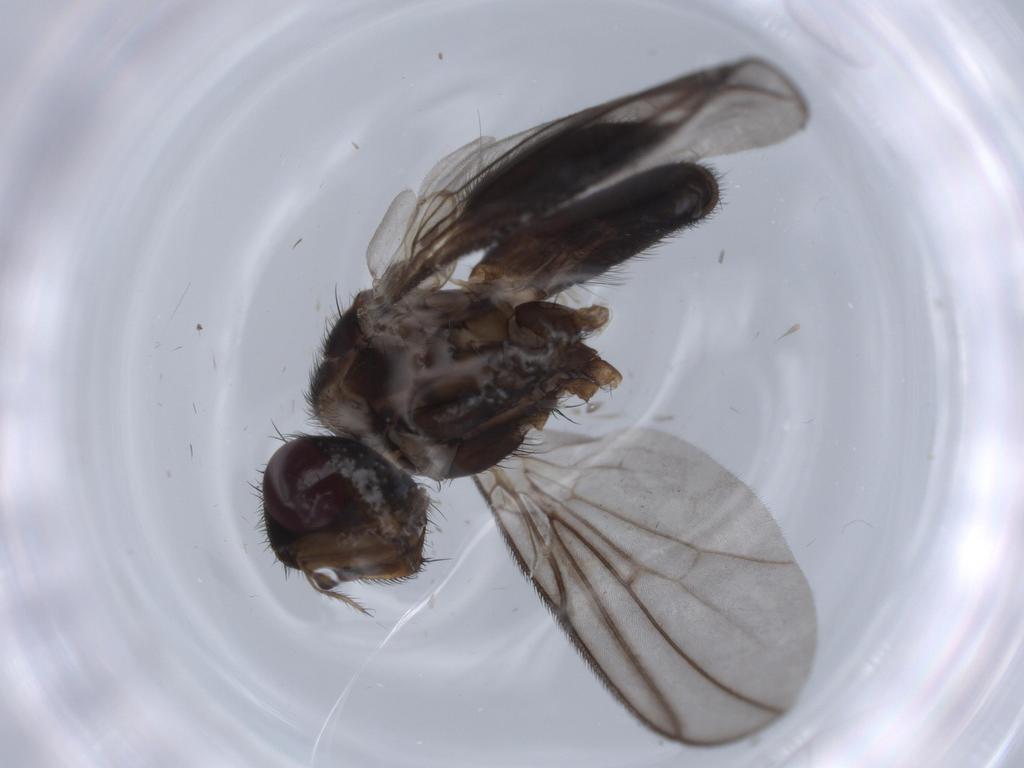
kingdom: Animalia
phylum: Arthropoda
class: Insecta
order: Diptera
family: Calliphoridae
